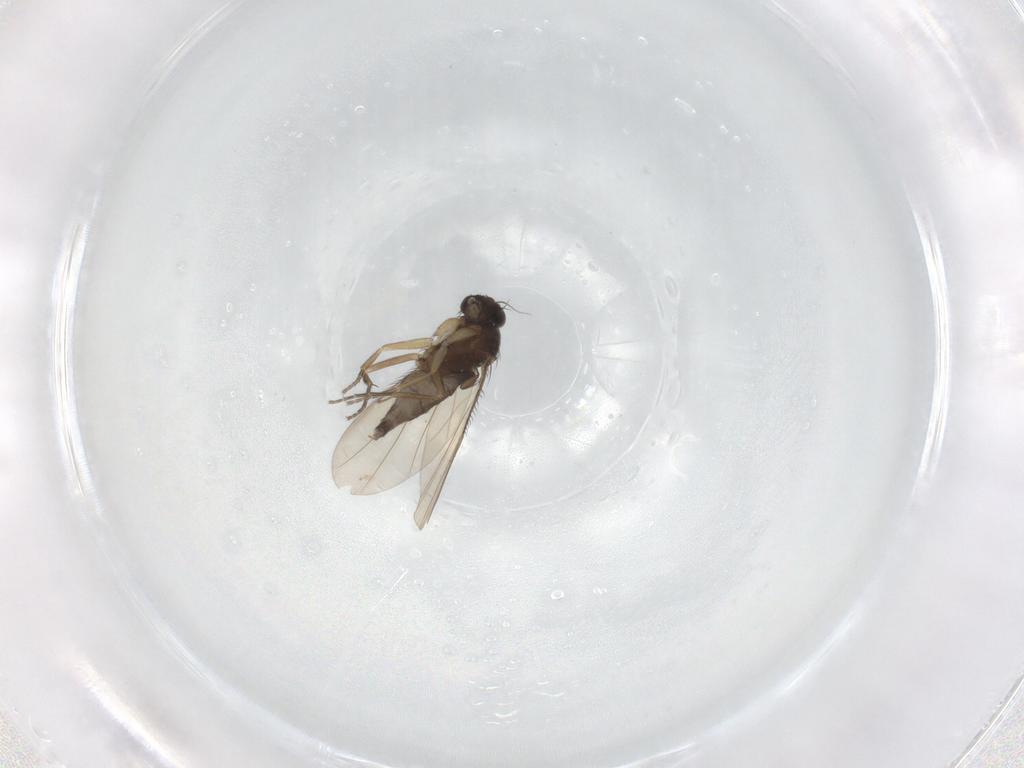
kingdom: Animalia
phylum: Arthropoda
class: Insecta
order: Diptera
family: Phoridae
